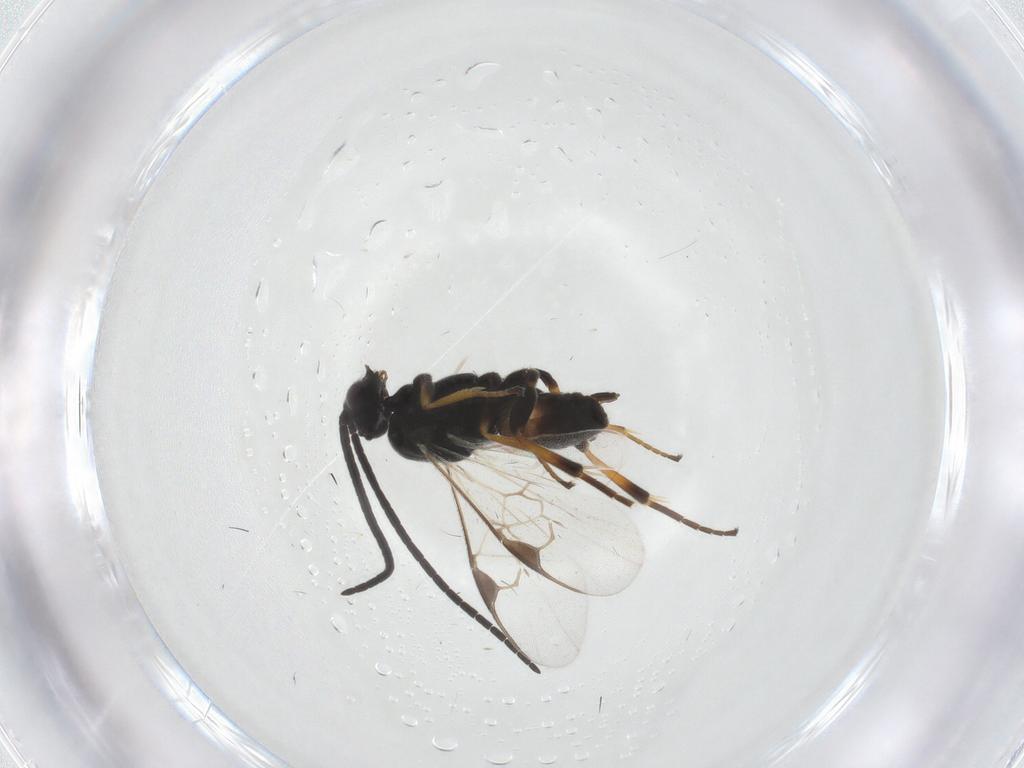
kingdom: Animalia
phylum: Arthropoda
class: Insecta
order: Hymenoptera
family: Braconidae
